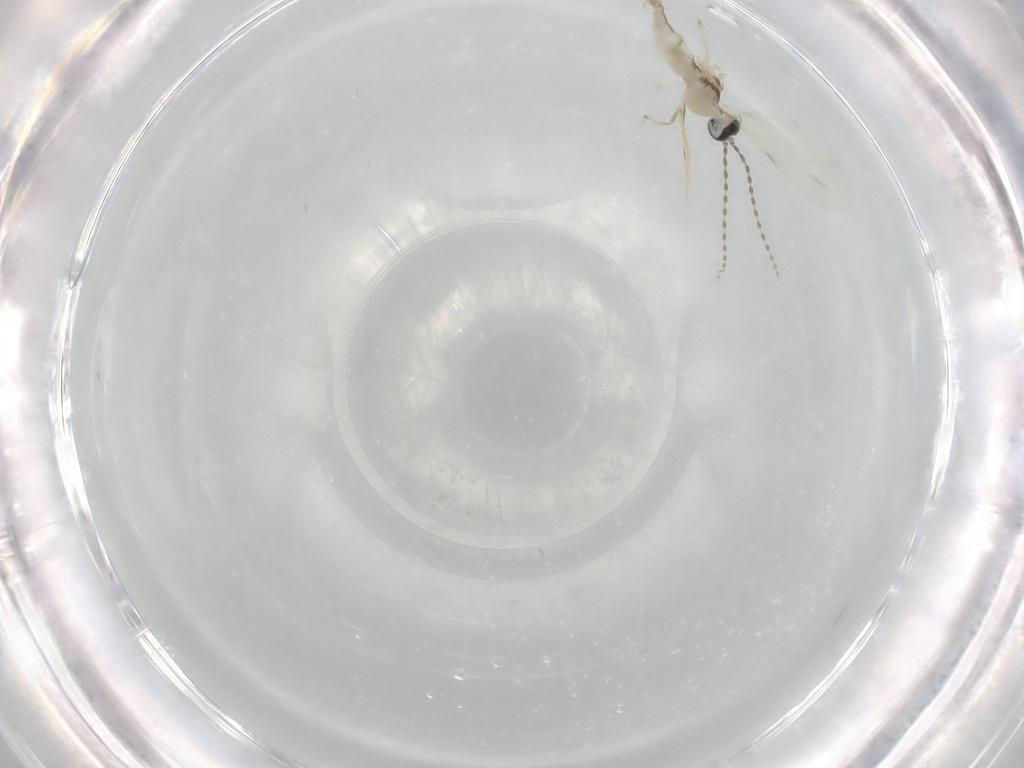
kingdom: Animalia
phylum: Arthropoda
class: Insecta
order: Diptera
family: Cecidomyiidae
